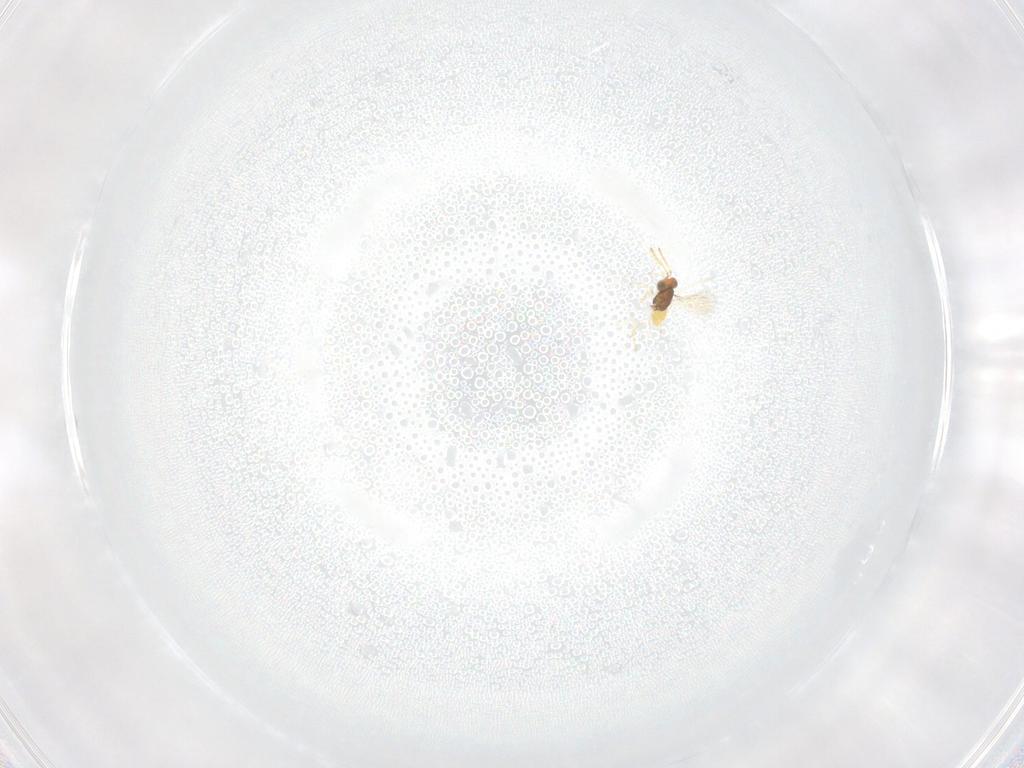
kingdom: Animalia
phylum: Arthropoda
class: Insecta
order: Hymenoptera
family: Aphelinidae
